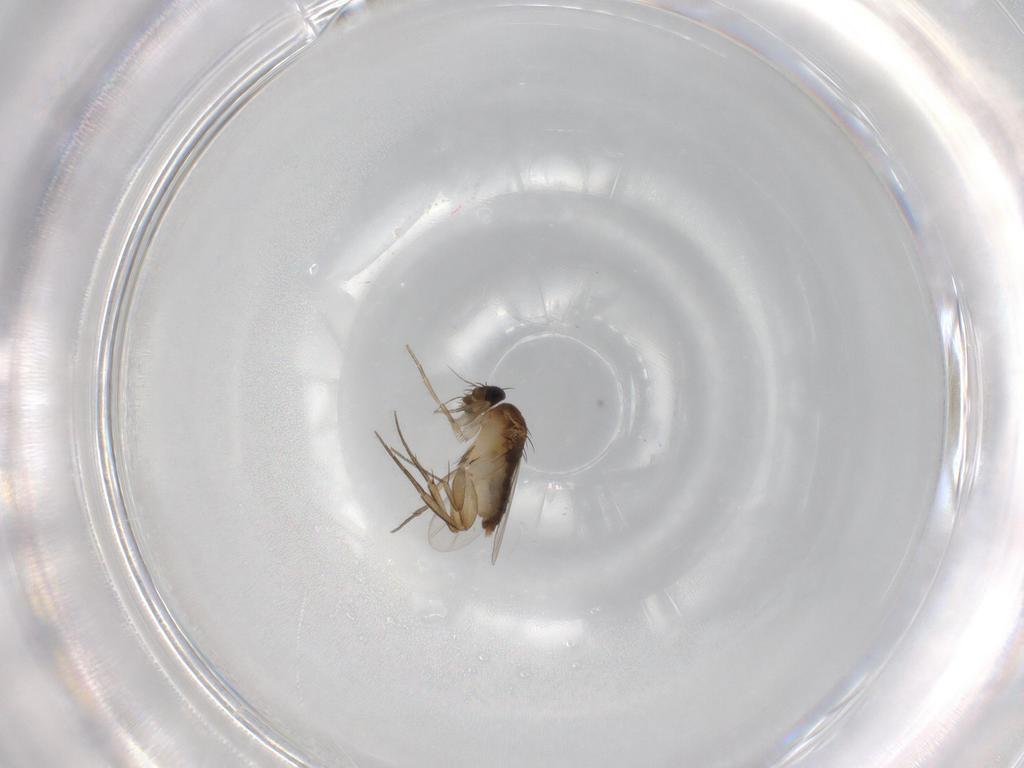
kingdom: Animalia
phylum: Arthropoda
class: Insecta
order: Diptera
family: Phoridae
